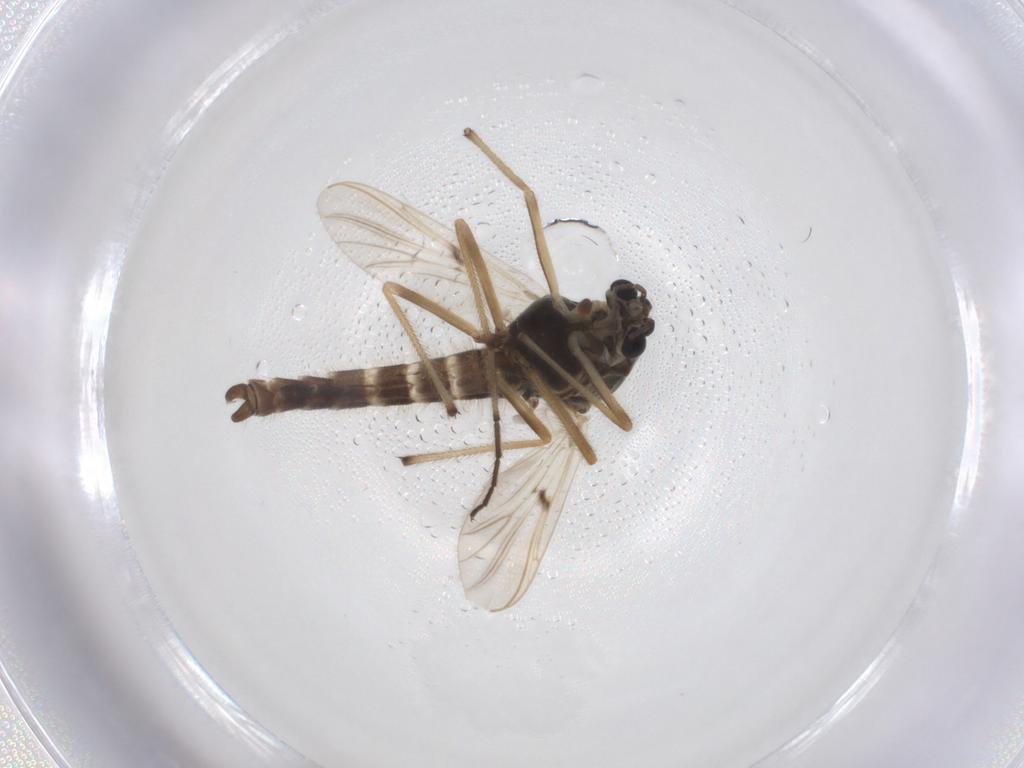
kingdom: Animalia
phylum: Arthropoda
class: Insecta
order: Diptera
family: Chironomidae
